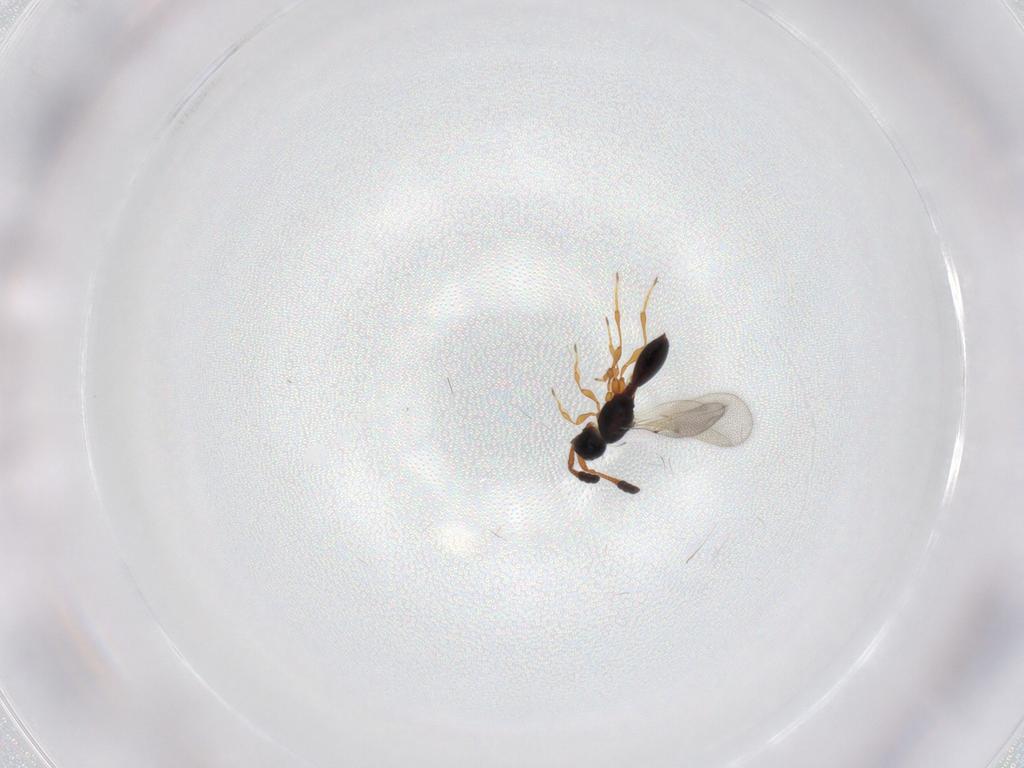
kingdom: Animalia
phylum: Arthropoda
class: Insecta
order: Hymenoptera
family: Diapriidae
